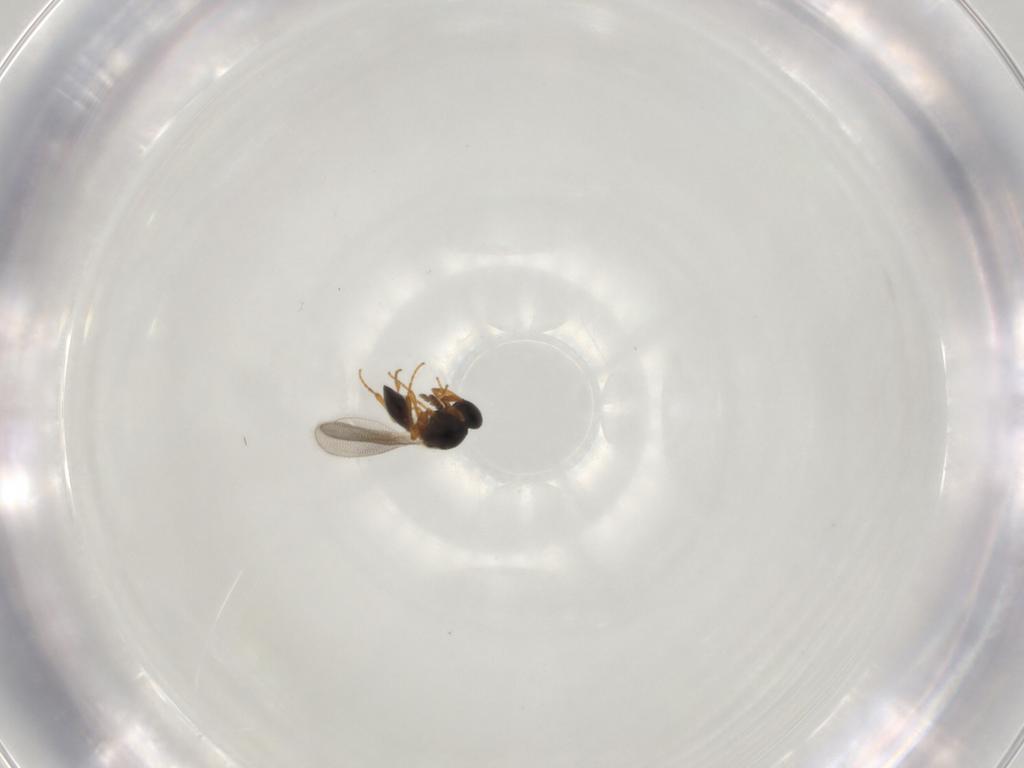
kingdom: Animalia
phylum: Arthropoda
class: Insecta
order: Hymenoptera
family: Platygastridae
